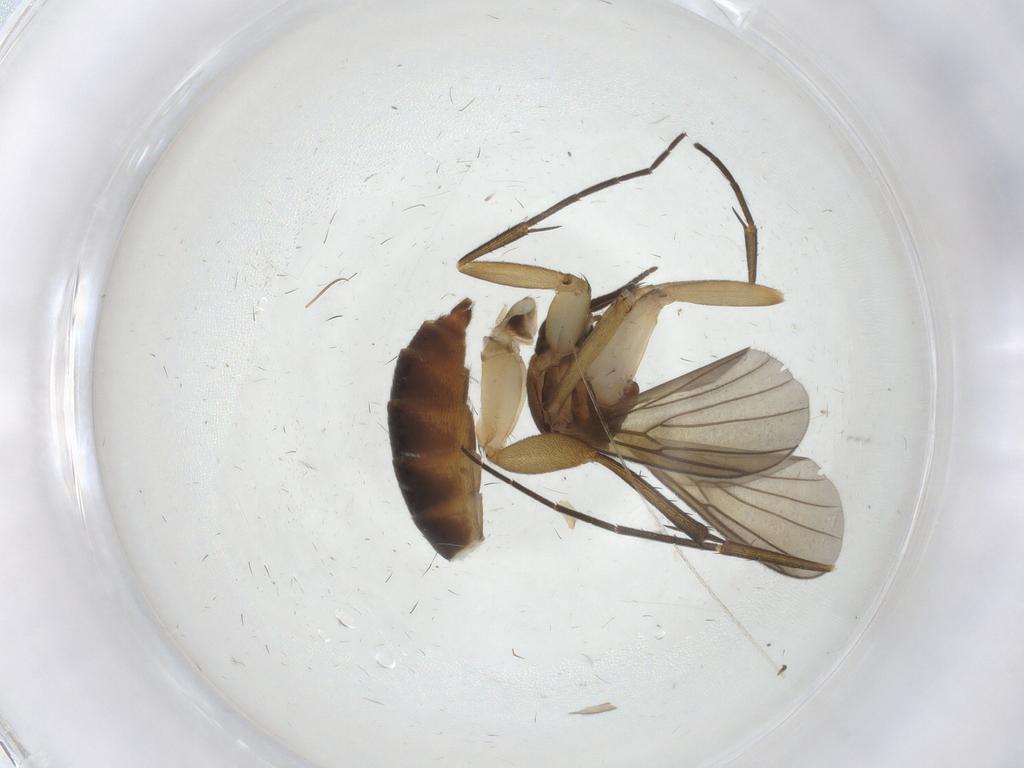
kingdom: Animalia
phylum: Arthropoda
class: Insecta
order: Diptera
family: Mycetophilidae
